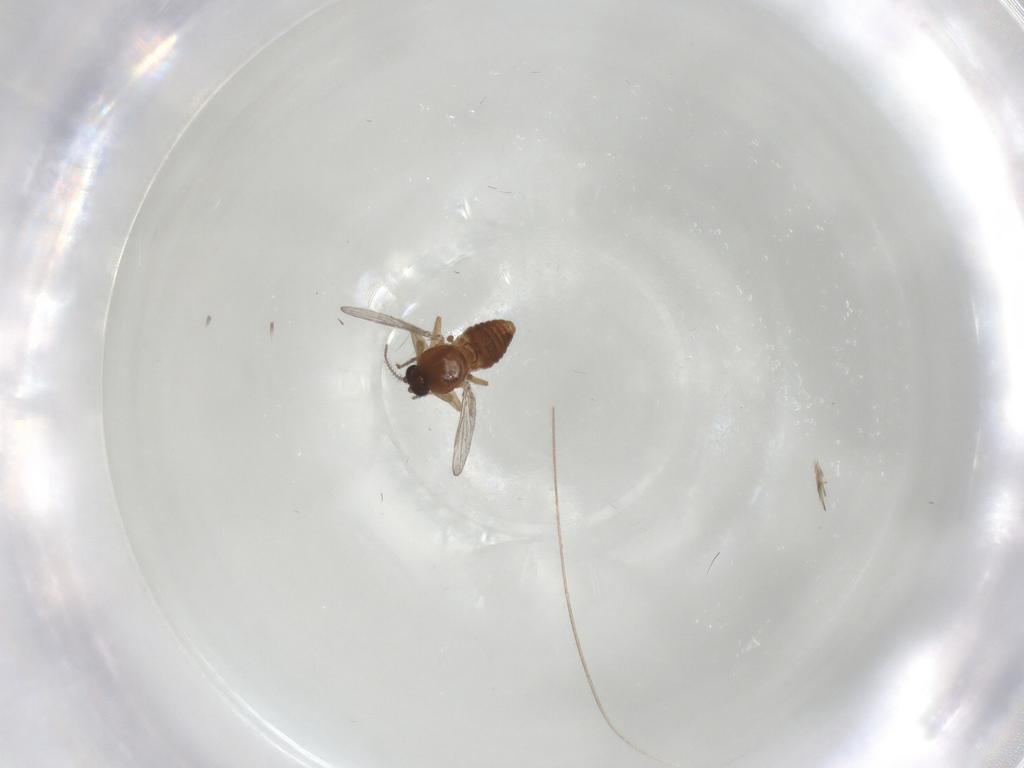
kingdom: Animalia
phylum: Arthropoda
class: Insecta
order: Diptera
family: Ceratopogonidae
